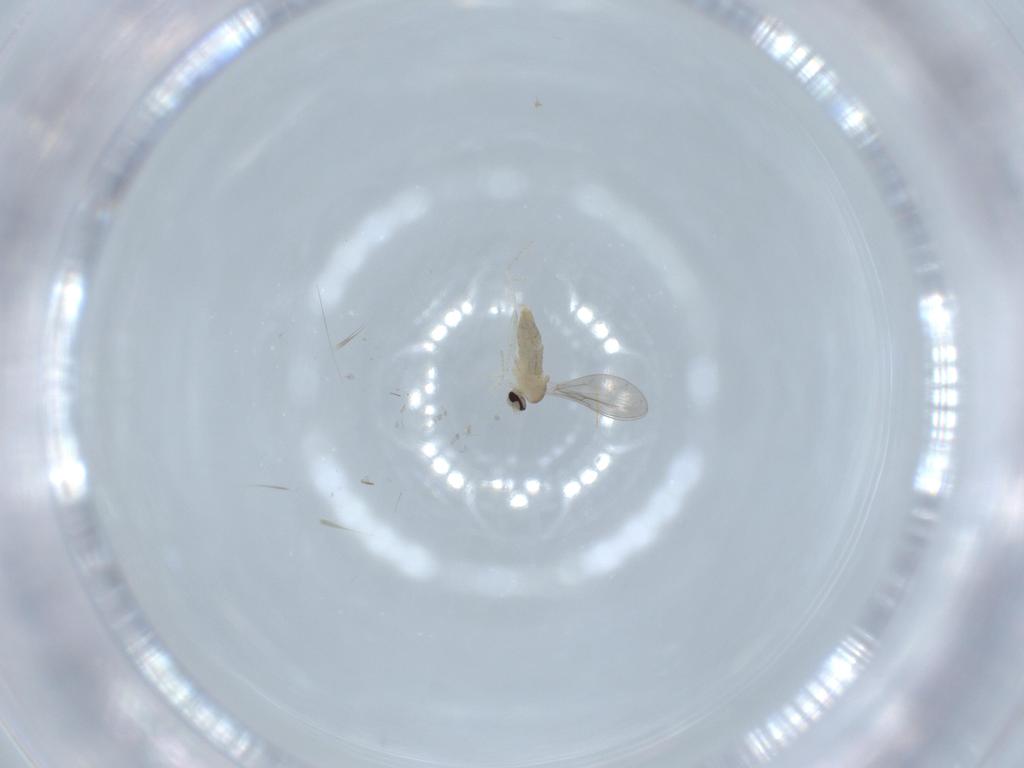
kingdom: Animalia
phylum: Arthropoda
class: Insecta
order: Diptera
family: Cecidomyiidae
